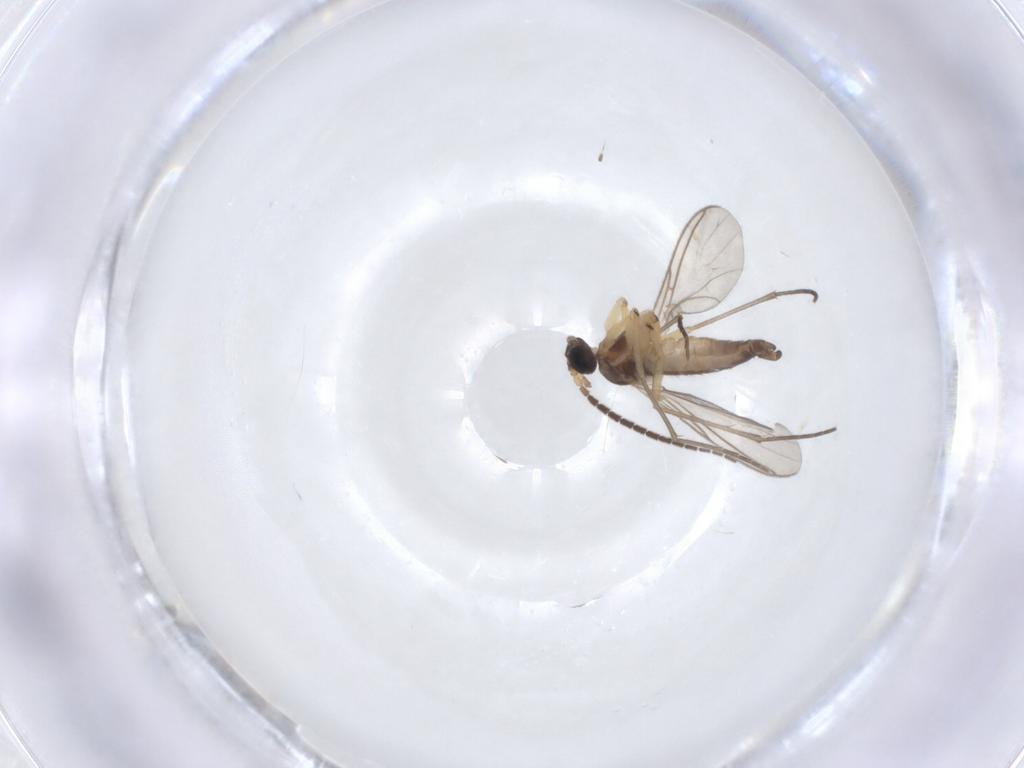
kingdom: Animalia
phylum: Arthropoda
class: Insecta
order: Diptera
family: Sciaridae
